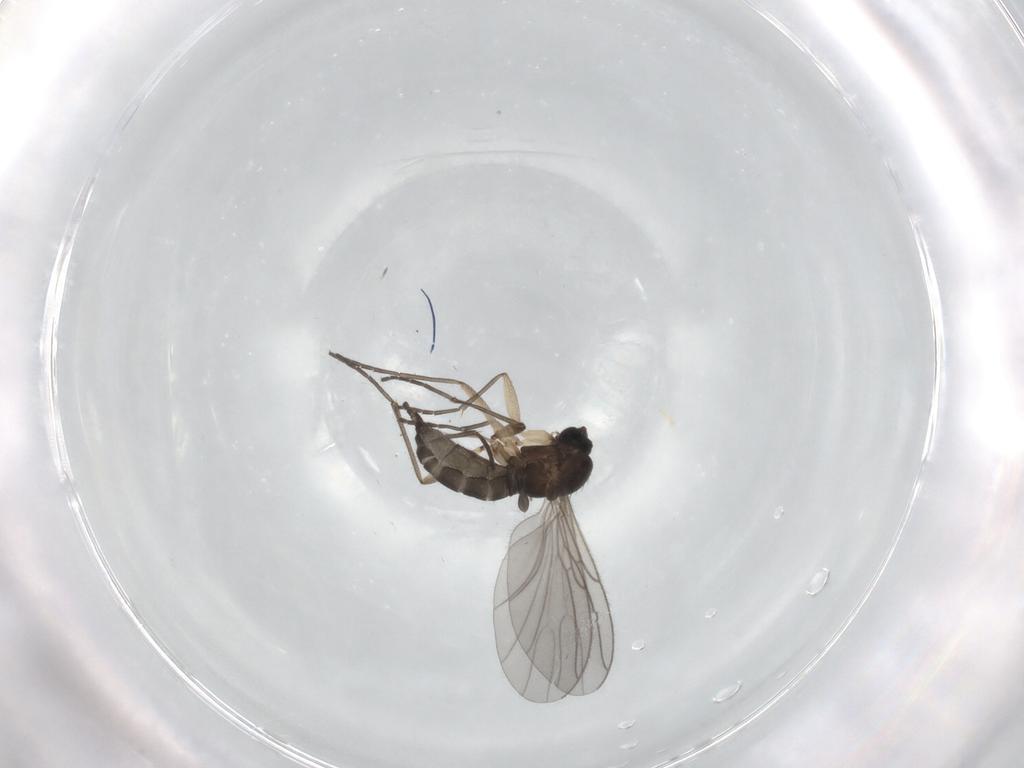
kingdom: Animalia
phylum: Arthropoda
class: Insecta
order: Diptera
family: Sciaridae
